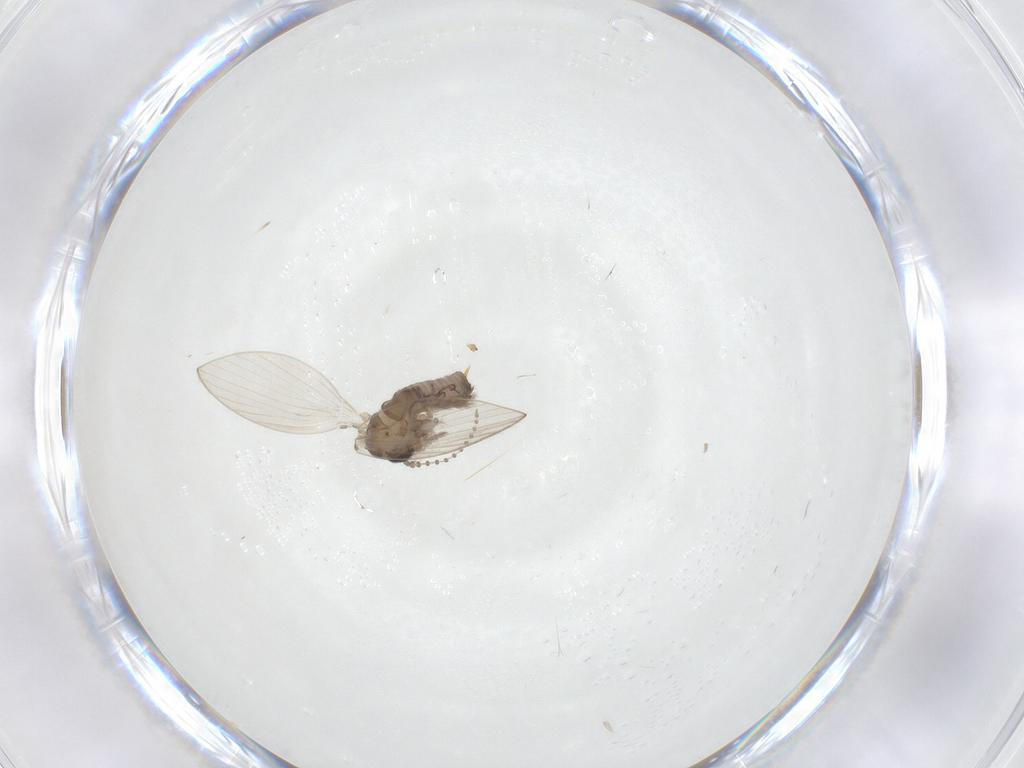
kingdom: Animalia
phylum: Arthropoda
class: Insecta
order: Diptera
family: Psychodidae
